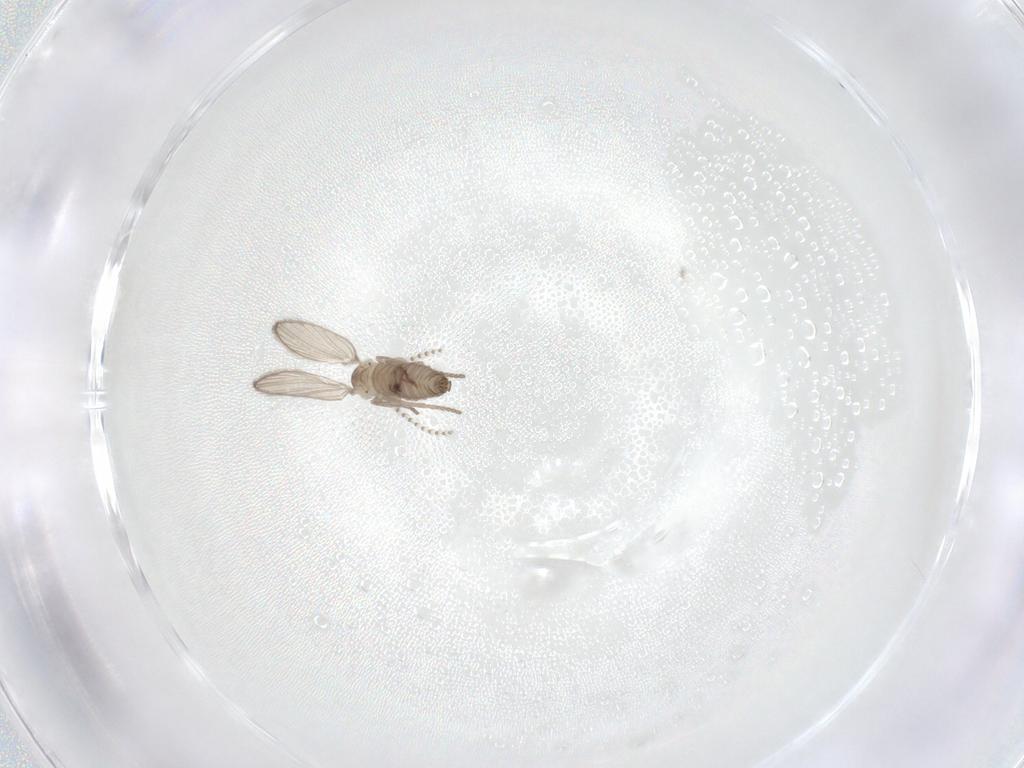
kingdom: Animalia
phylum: Arthropoda
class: Insecta
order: Diptera
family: Psychodidae
